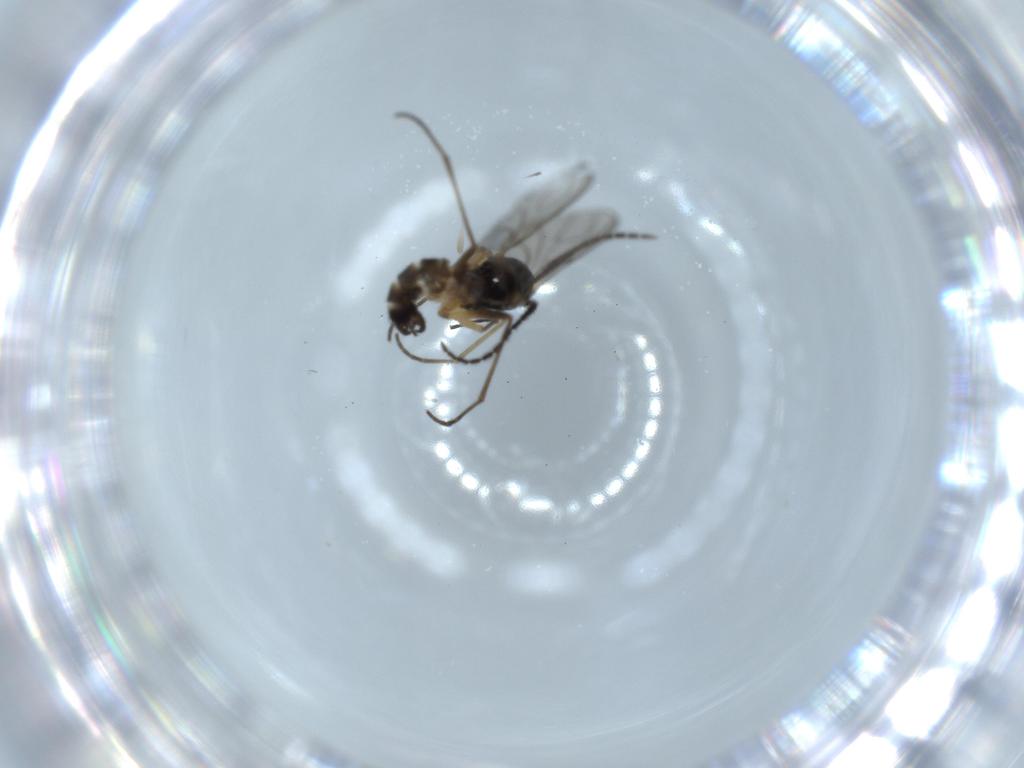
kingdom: Animalia
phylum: Arthropoda
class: Insecta
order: Diptera
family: Sciaridae
